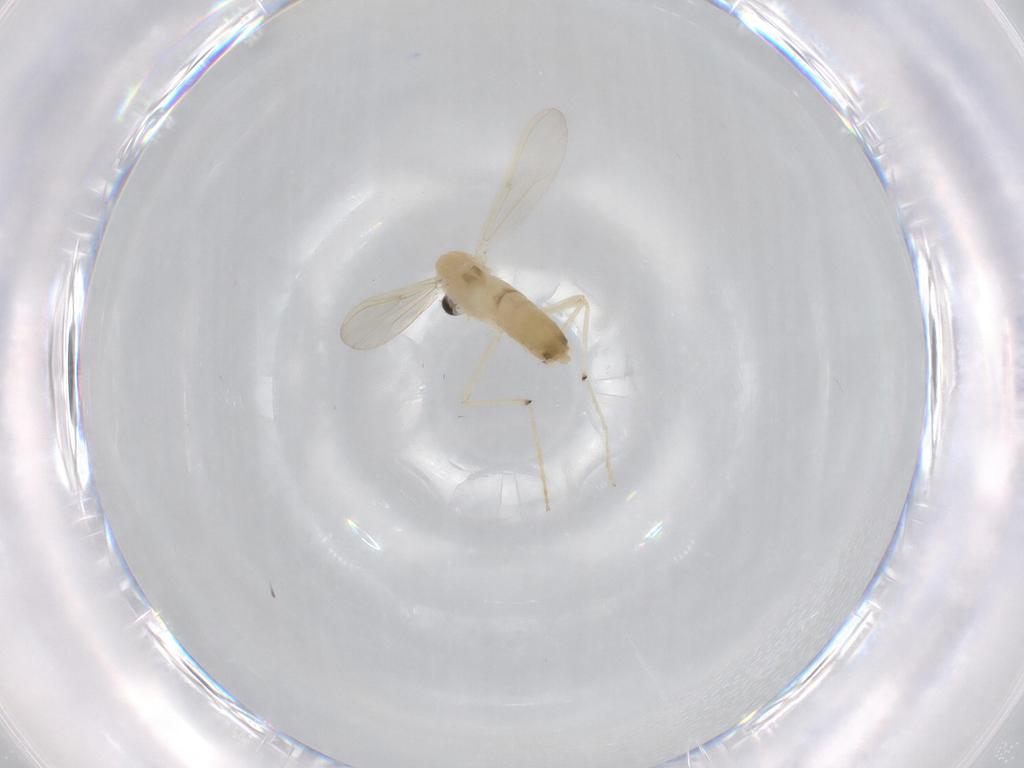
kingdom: Animalia
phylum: Arthropoda
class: Insecta
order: Diptera
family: Chironomidae
